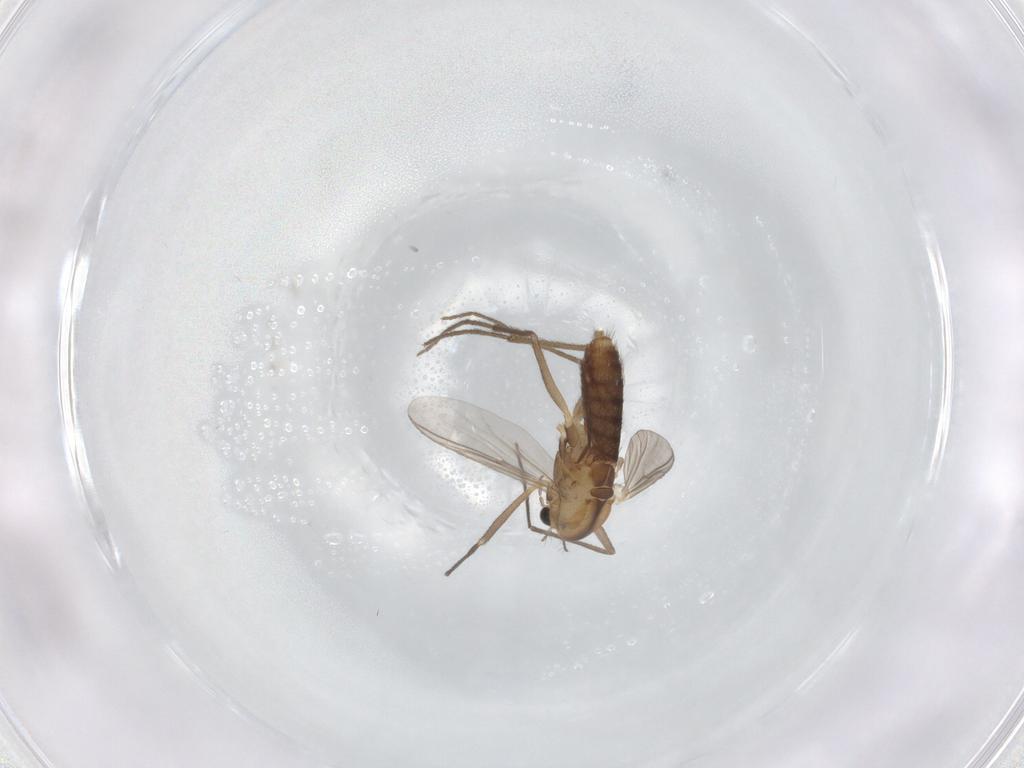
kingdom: Animalia
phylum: Arthropoda
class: Insecta
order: Diptera
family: Chironomidae
